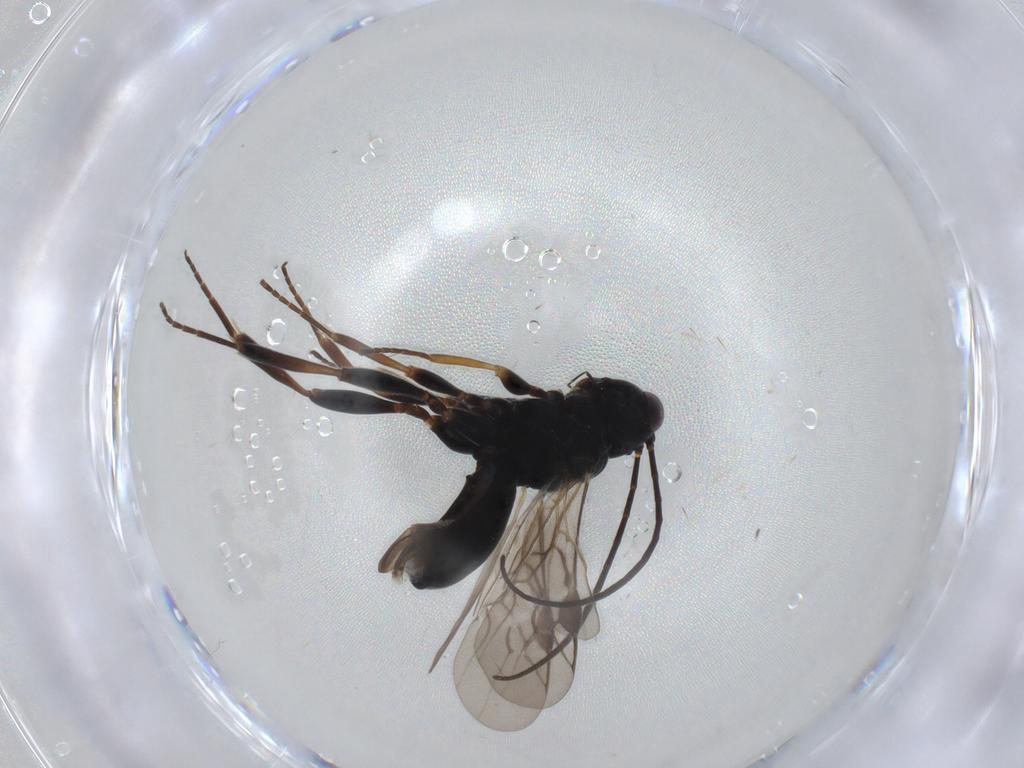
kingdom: Animalia
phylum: Arthropoda
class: Insecta
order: Hymenoptera
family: Braconidae
